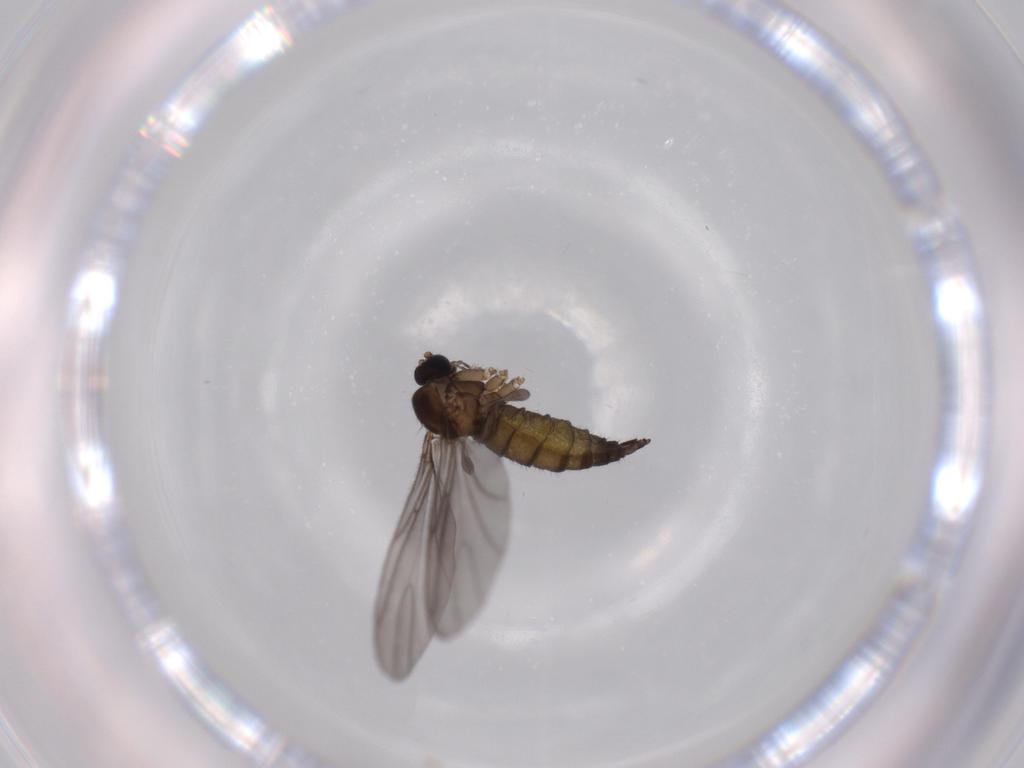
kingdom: Animalia
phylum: Arthropoda
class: Insecta
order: Diptera
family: Sciaridae
